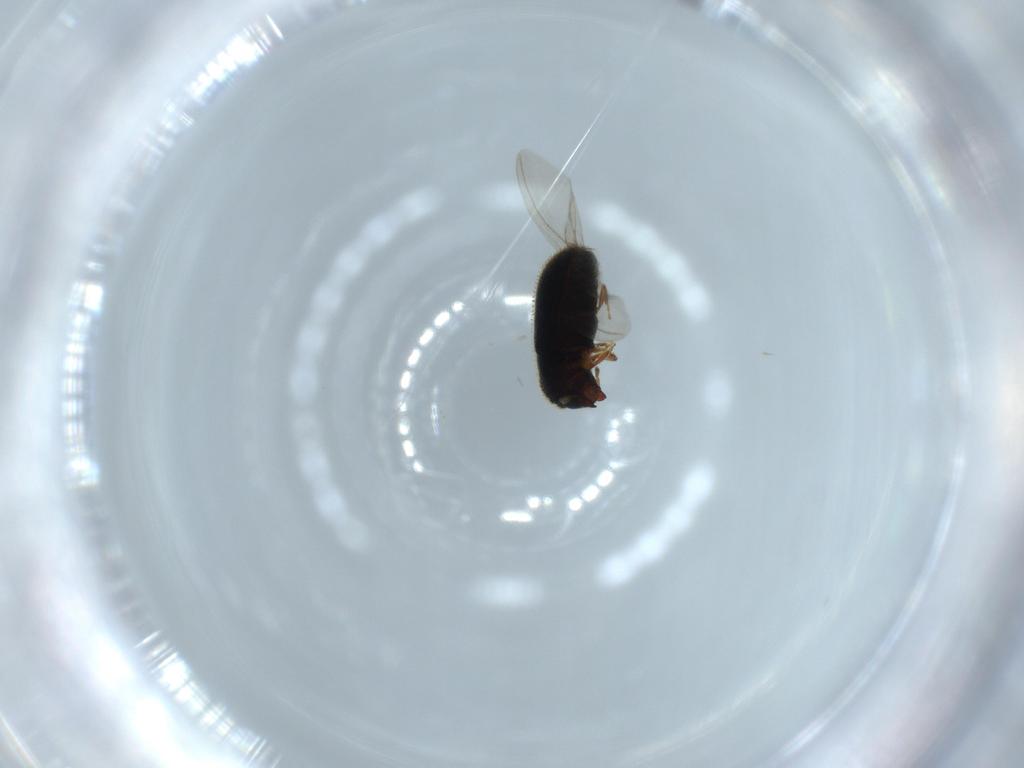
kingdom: Animalia
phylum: Arthropoda
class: Insecta
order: Coleoptera
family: Curculionidae
